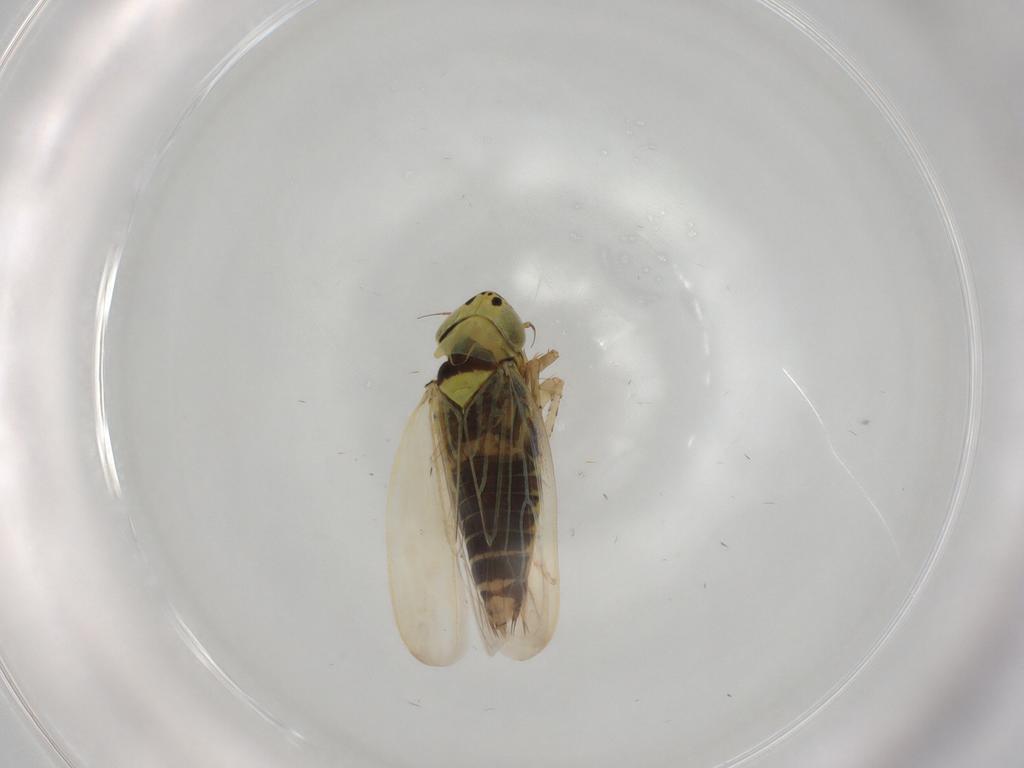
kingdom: Animalia
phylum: Arthropoda
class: Insecta
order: Hemiptera
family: Cicadellidae
